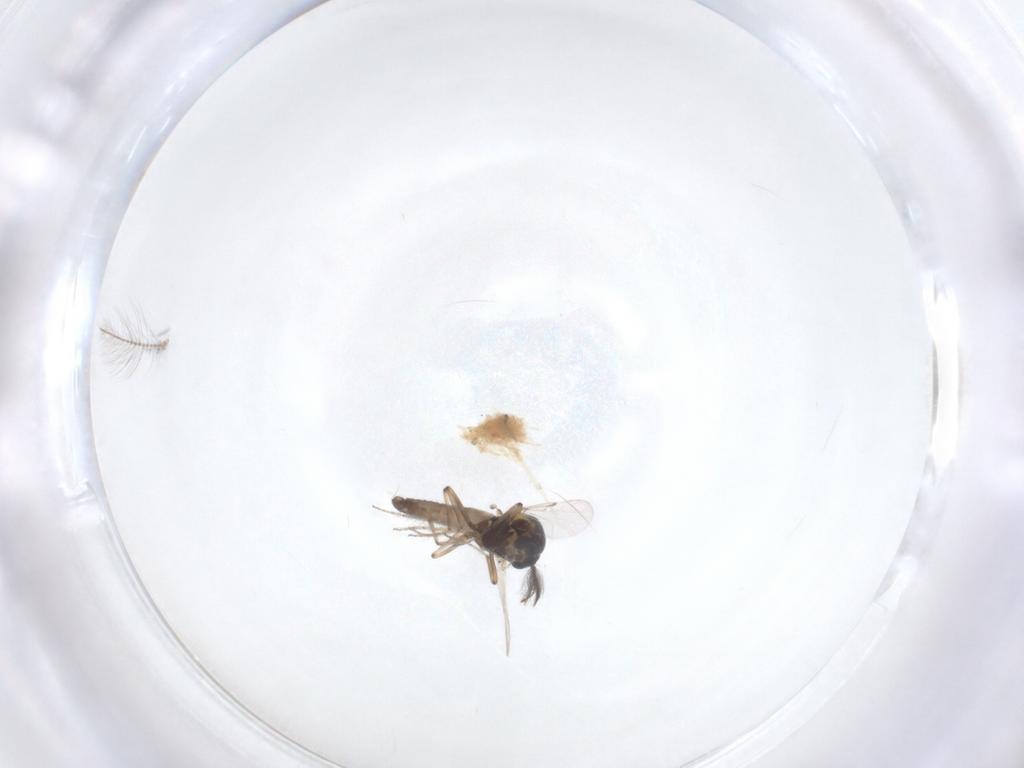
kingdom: Animalia
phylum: Arthropoda
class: Insecta
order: Diptera
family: Ceratopogonidae
